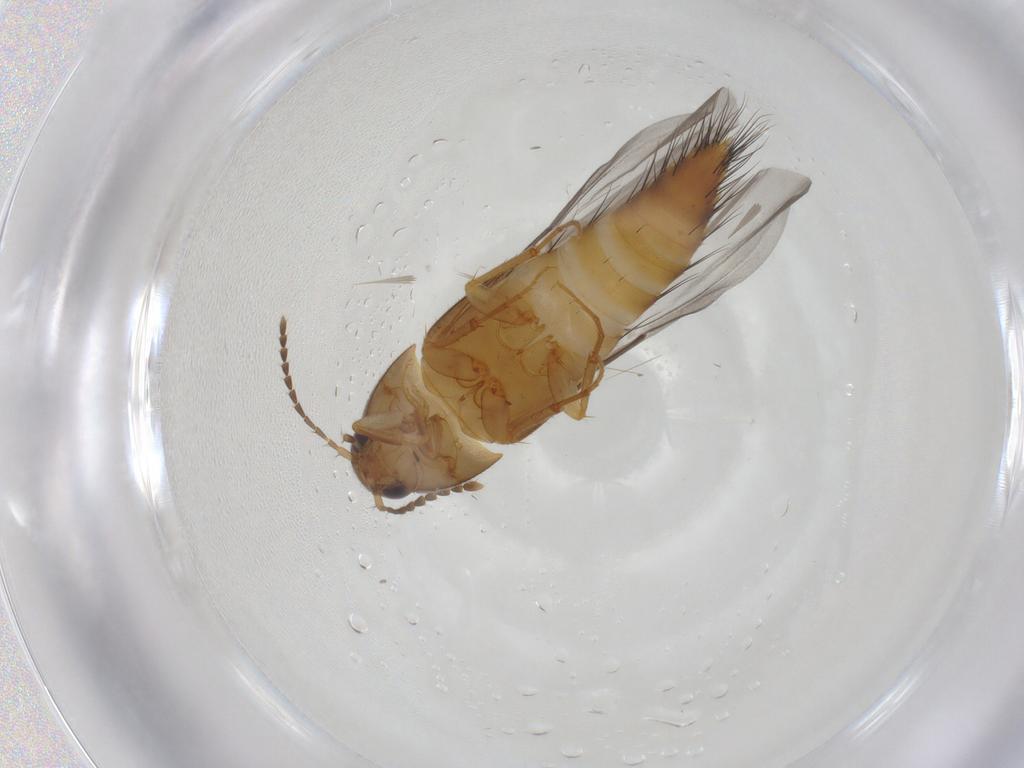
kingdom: Animalia
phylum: Arthropoda
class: Insecta
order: Coleoptera
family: Staphylinidae
